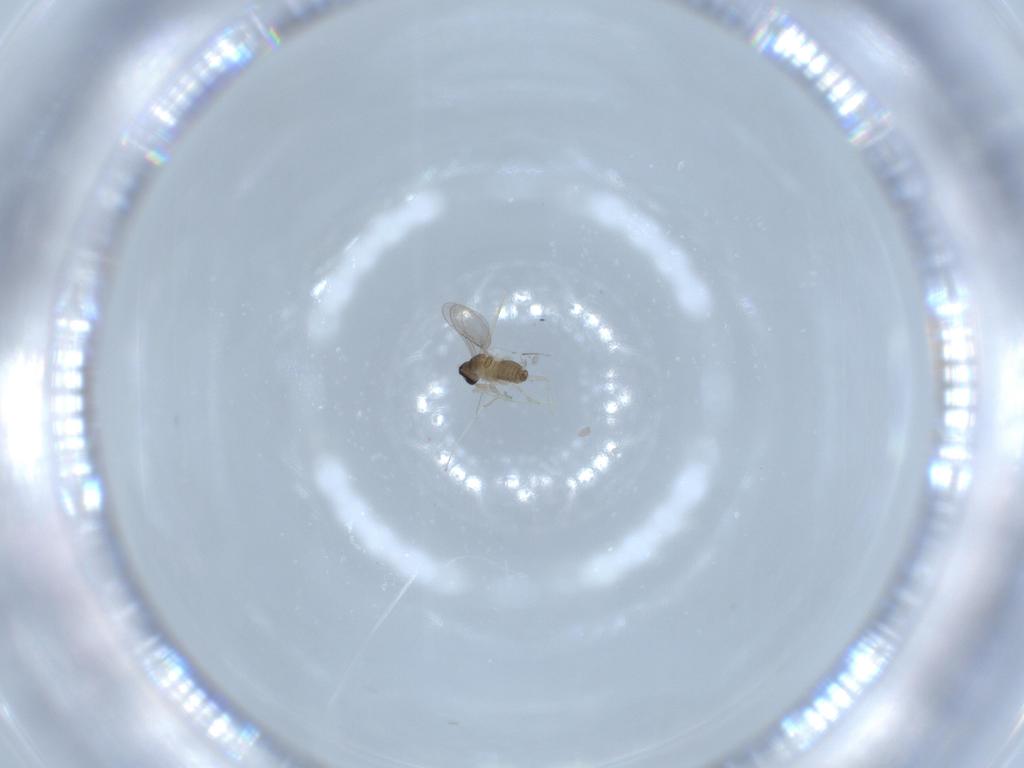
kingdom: Animalia
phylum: Arthropoda
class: Insecta
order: Diptera
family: Cecidomyiidae
